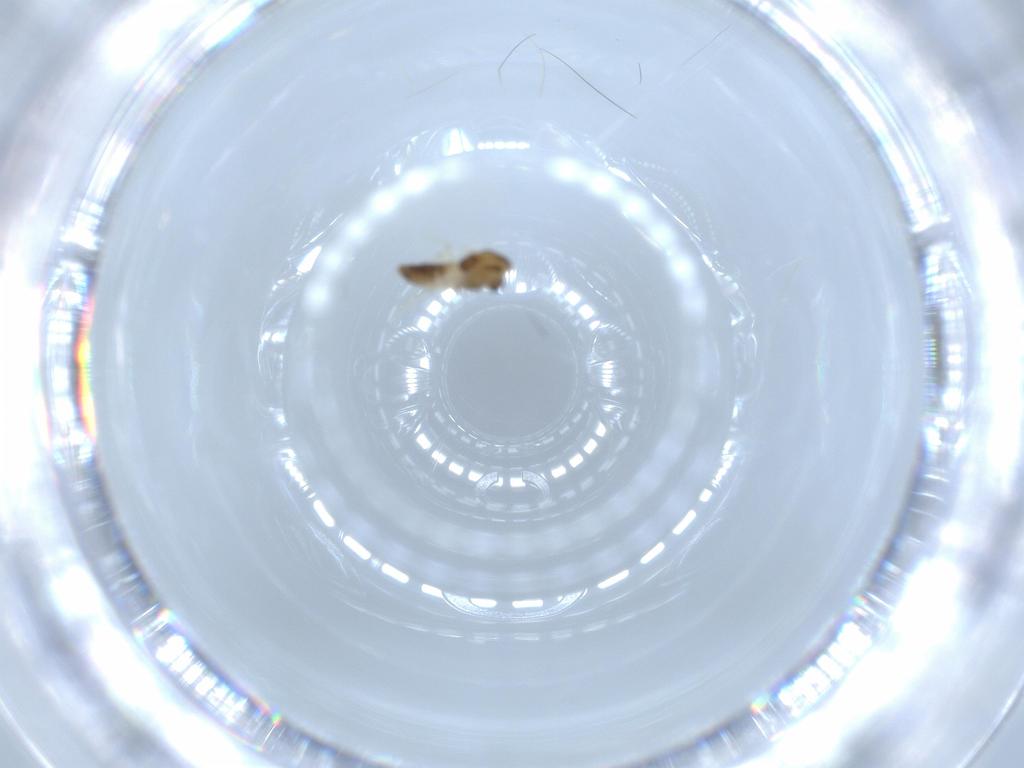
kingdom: Animalia
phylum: Arthropoda
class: Insecta
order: Diptera
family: Chironomidae
